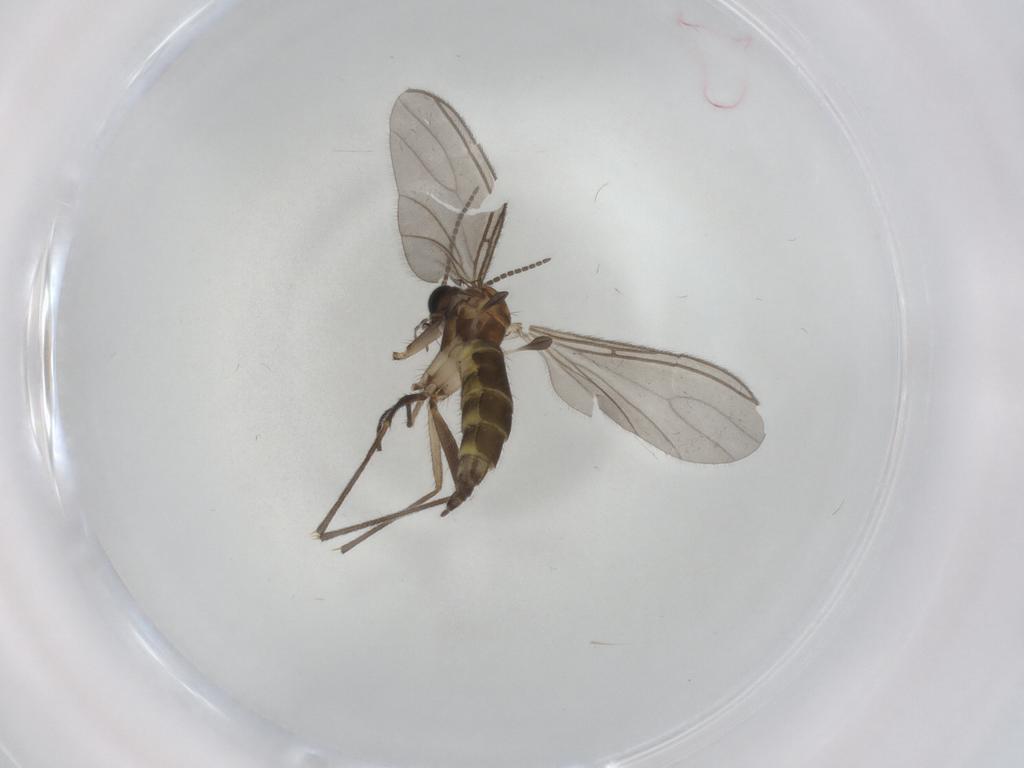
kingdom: Animalia
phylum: Arthropoda
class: Insecta
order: Diptera
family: Sciaridae
